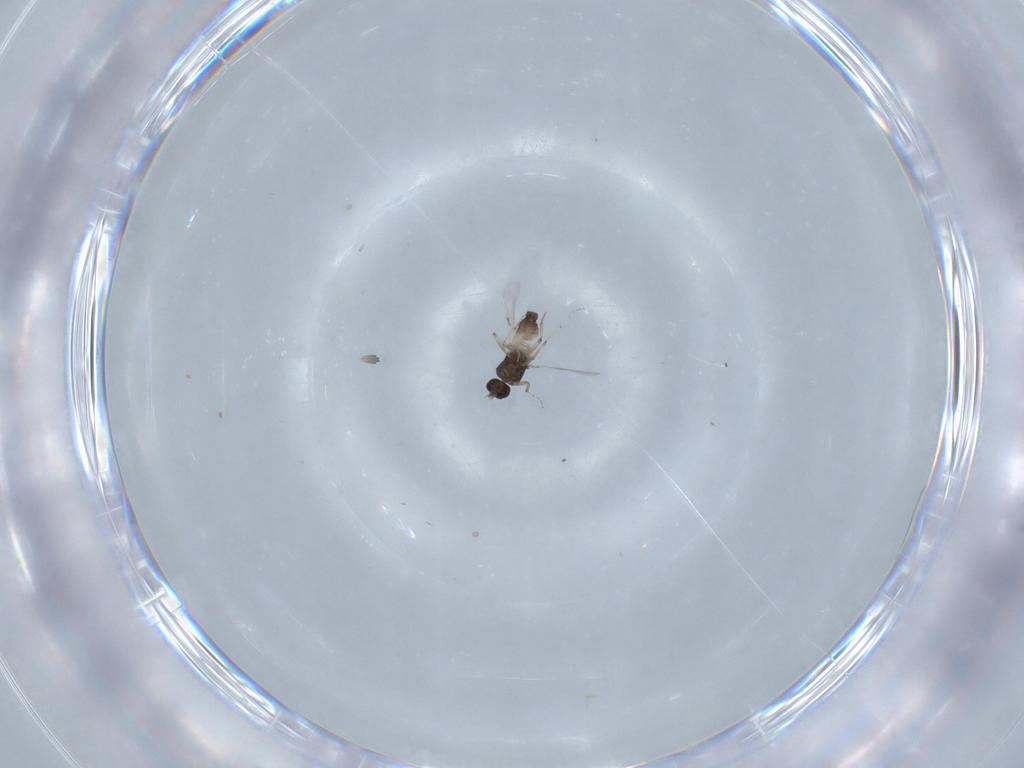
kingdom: Animalia
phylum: Arthropoda
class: Insecta
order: Diptera
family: Ceratopogonidae
